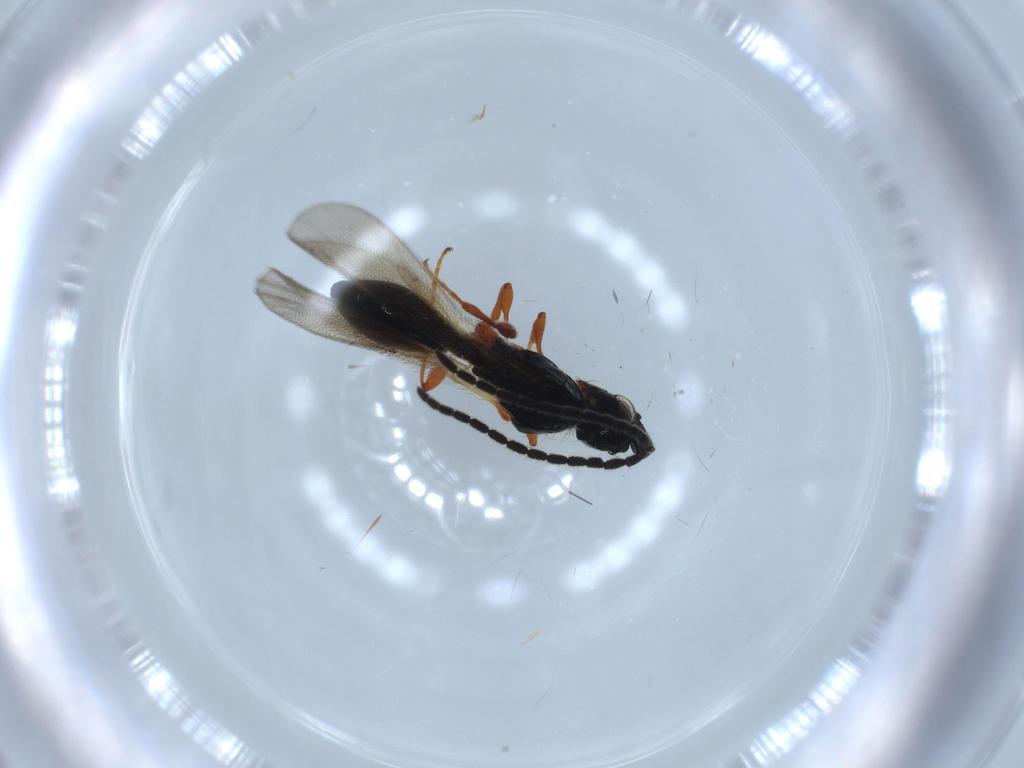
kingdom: Animalia
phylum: Arthropoda
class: Insecta
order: Hymenoptera
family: Diapriidae
